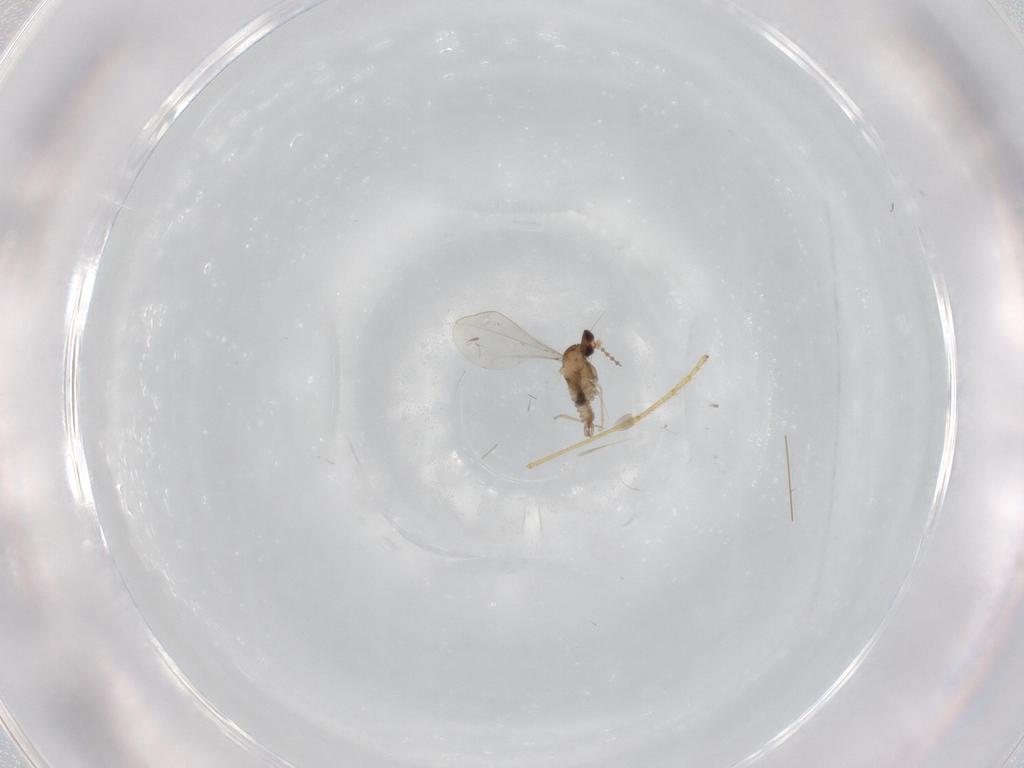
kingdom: Animalia
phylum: Arthropoda
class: Insecta
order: Diptera
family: Cecidomyiidae
